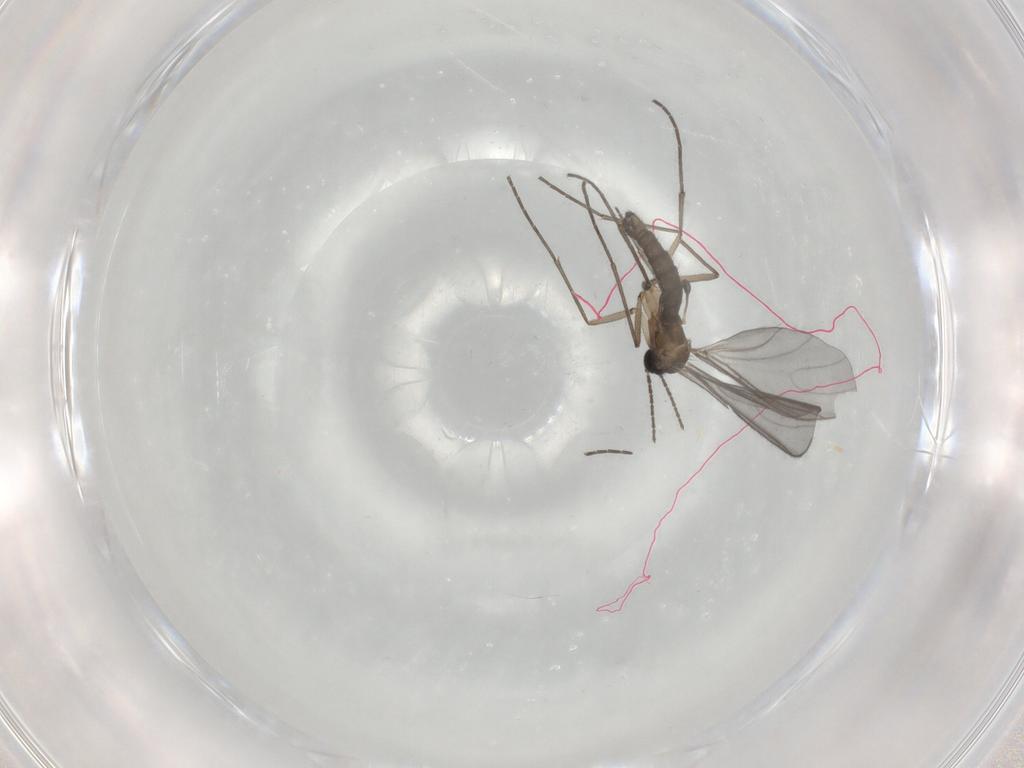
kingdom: Animalia
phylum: Arthropoda
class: Insecta
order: Diptera
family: Sciaridae
